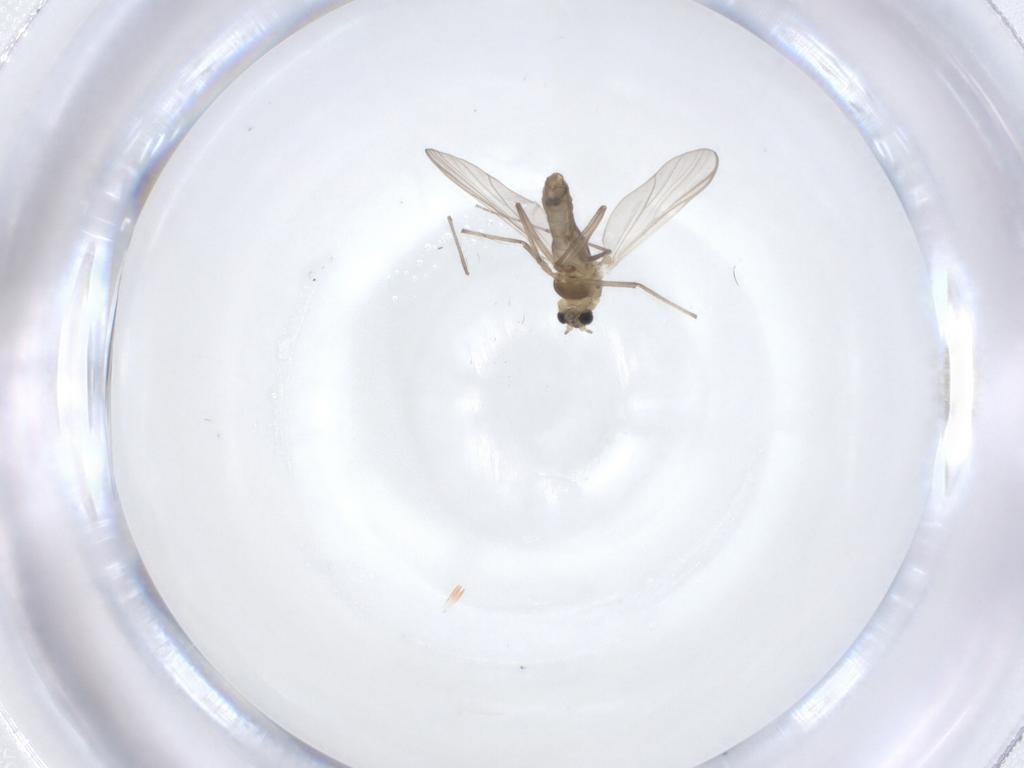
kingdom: Animalia
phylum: Arthropoda
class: Insecta
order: Diptera
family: Chironomidae
